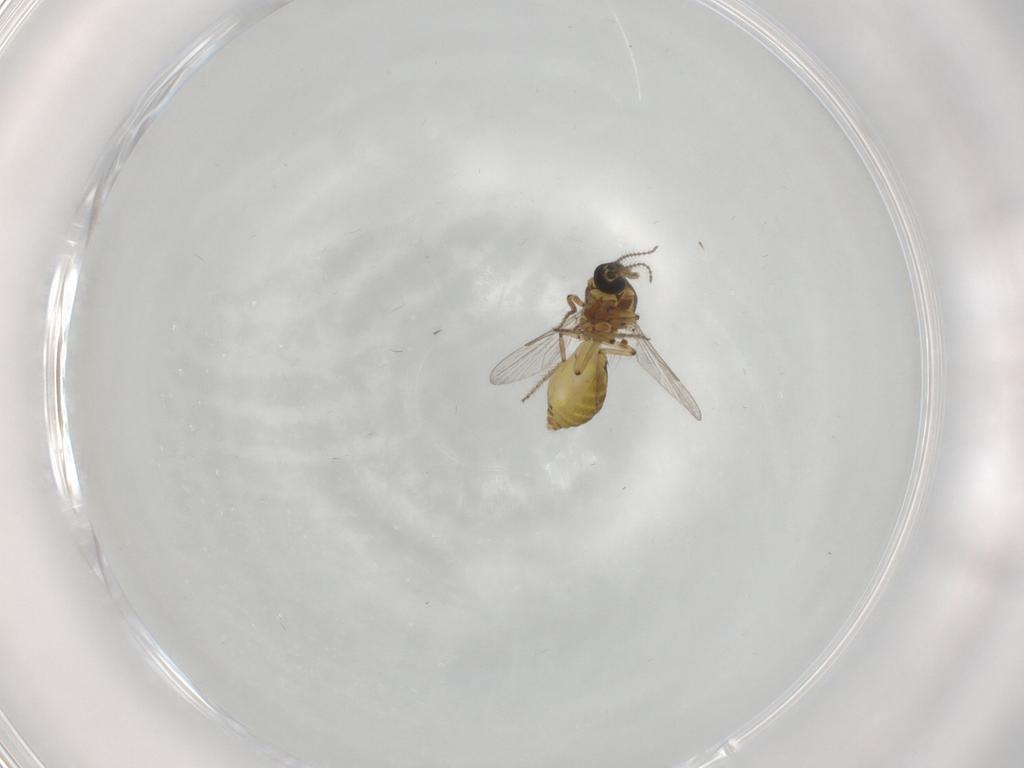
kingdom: Animalia
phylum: Arthropoda
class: Insecta
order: Diptera
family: Ceratopogonidae
